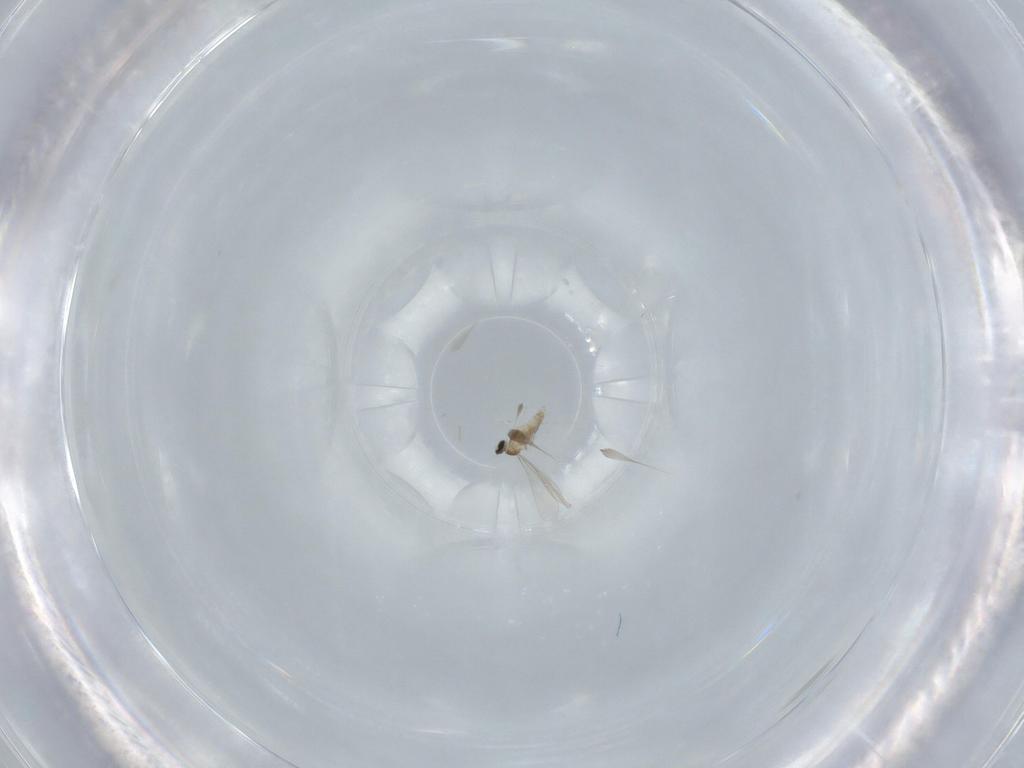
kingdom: Animalia
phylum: Arthropoda
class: Insecta
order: Diptera
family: Cecidomyiidae
